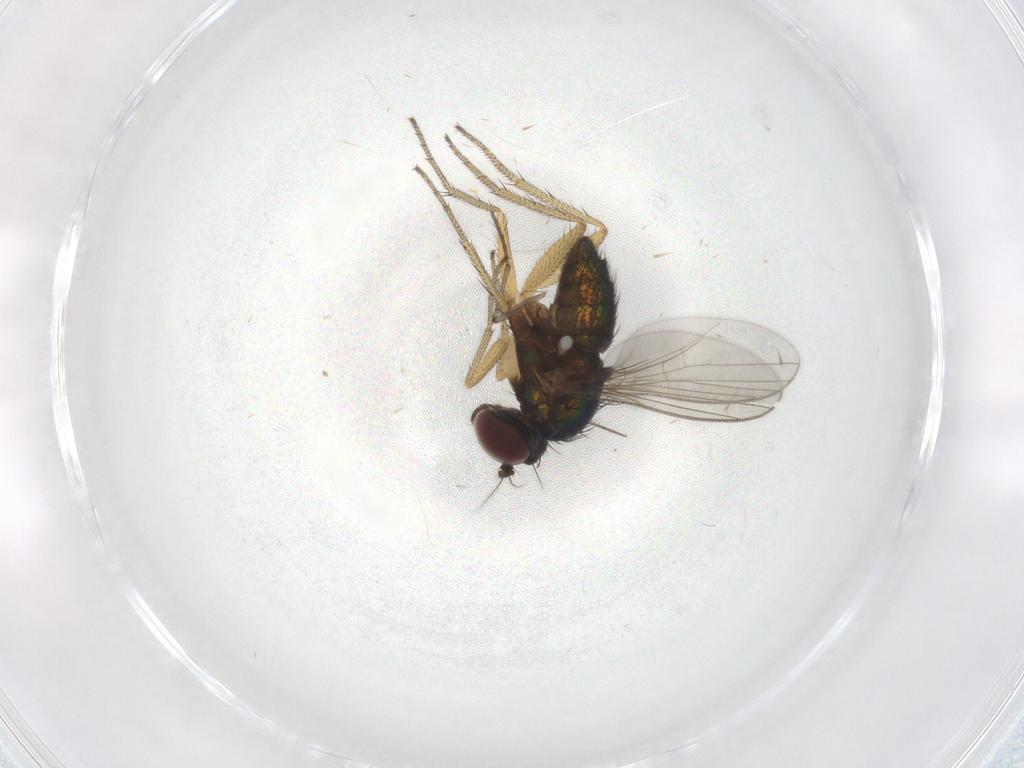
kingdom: Animalia
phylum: Arthropoda
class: Insecta
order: Diptera
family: Sciaridae
